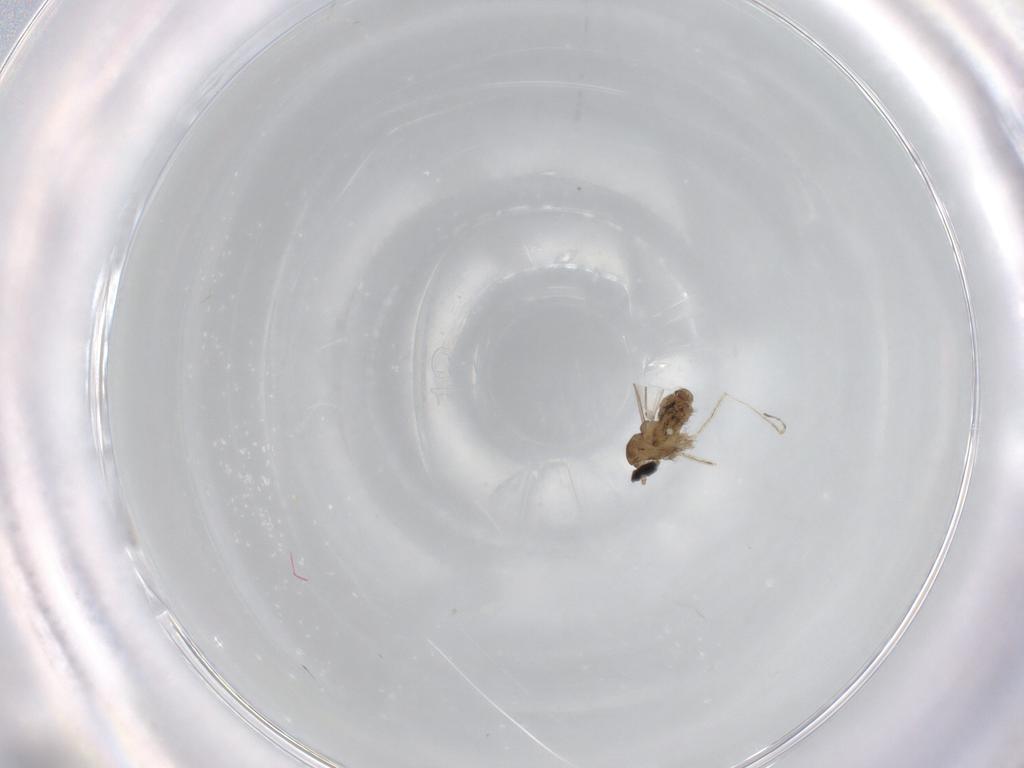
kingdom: Animalia
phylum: Arthropoda
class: Insecta
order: Diptera
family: Cecidomyiidae
